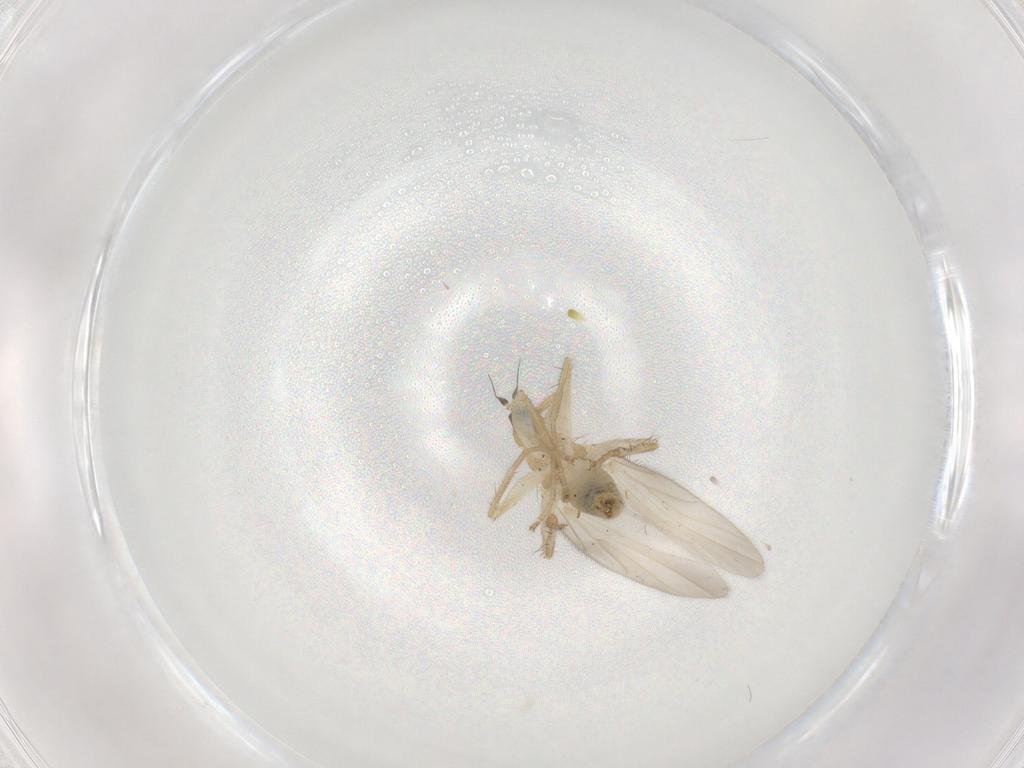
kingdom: Animalia
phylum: Arthropoda
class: Insecta
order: Diptera
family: Hybotidae
